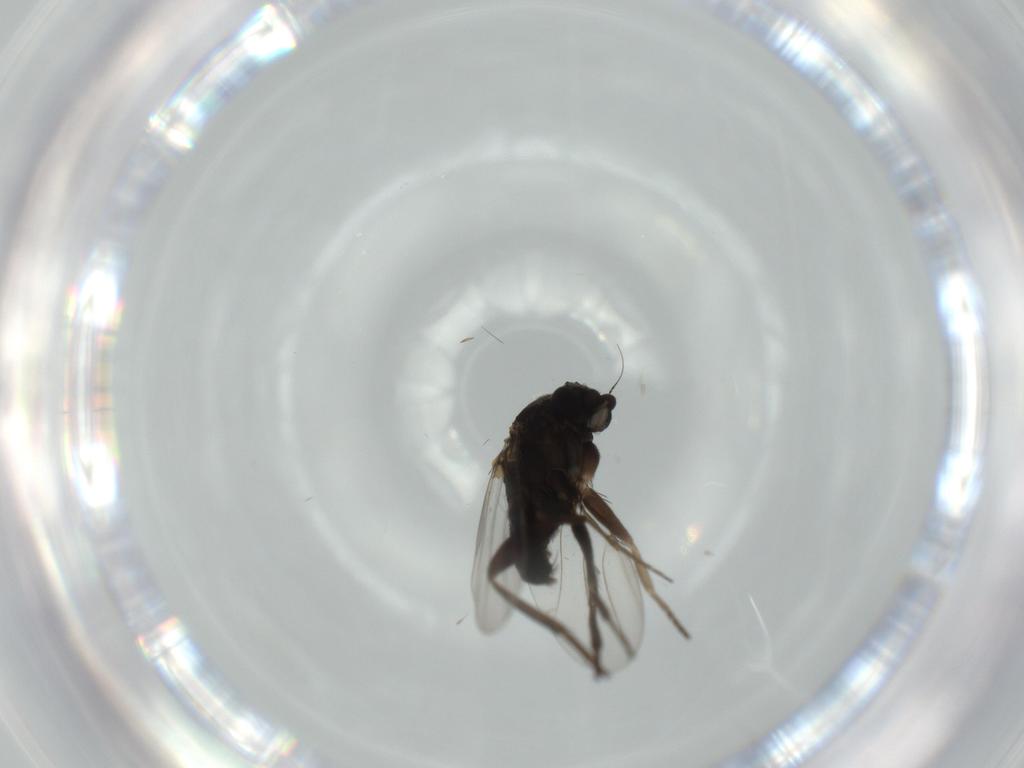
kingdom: Animalia
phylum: Arthropoda
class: Insecta
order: Diptera
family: Phoridae
